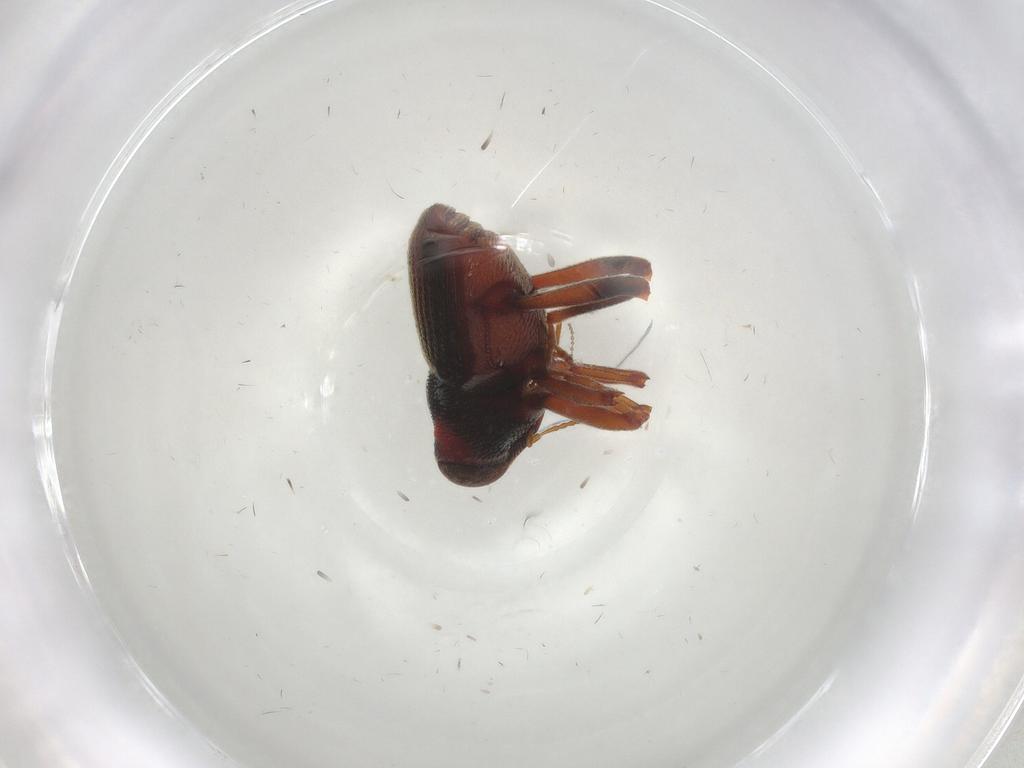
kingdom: Animalia
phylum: Arthropoda
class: Insecta
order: Coleoptera
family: Curculionidae
